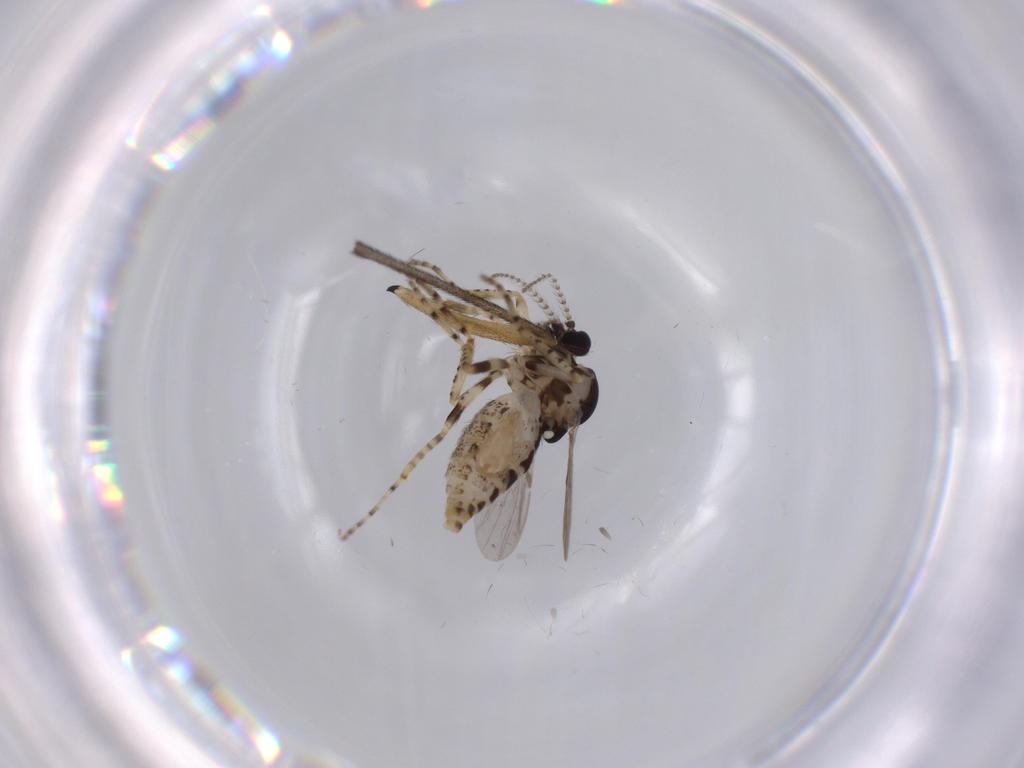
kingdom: Animalia
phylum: Arthropoda
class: Insecta
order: Diptera
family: Ceratopogonidae
